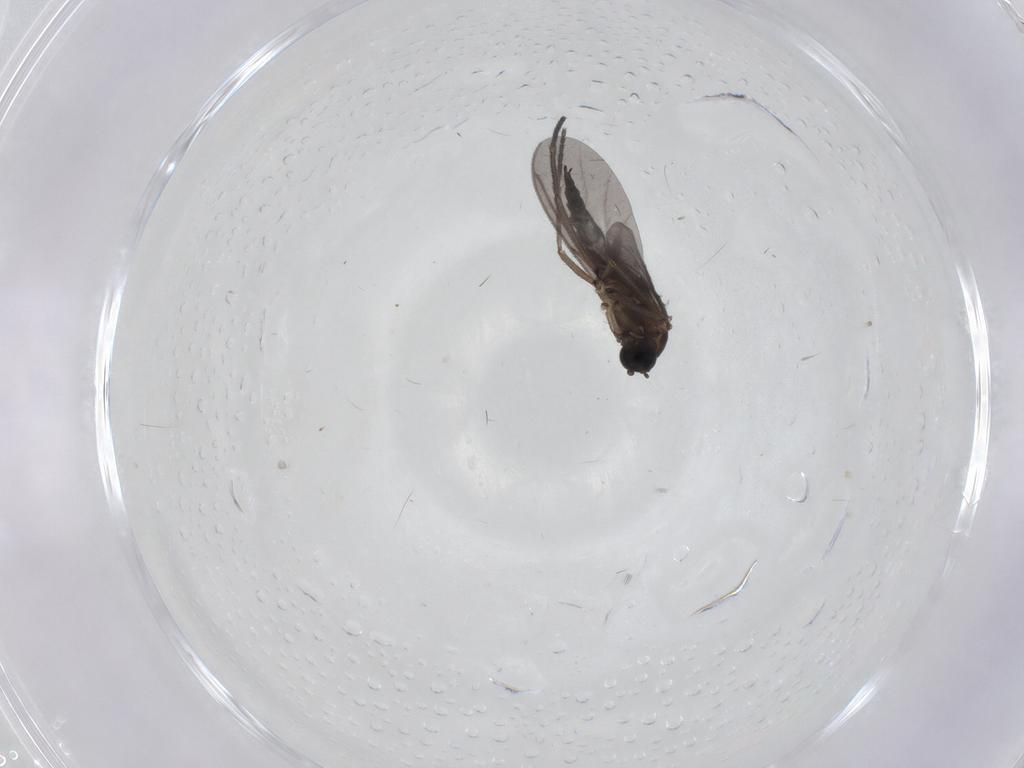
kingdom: Animalia
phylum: Arthropoda
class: Insecta
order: Diptera
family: Sciaridae
